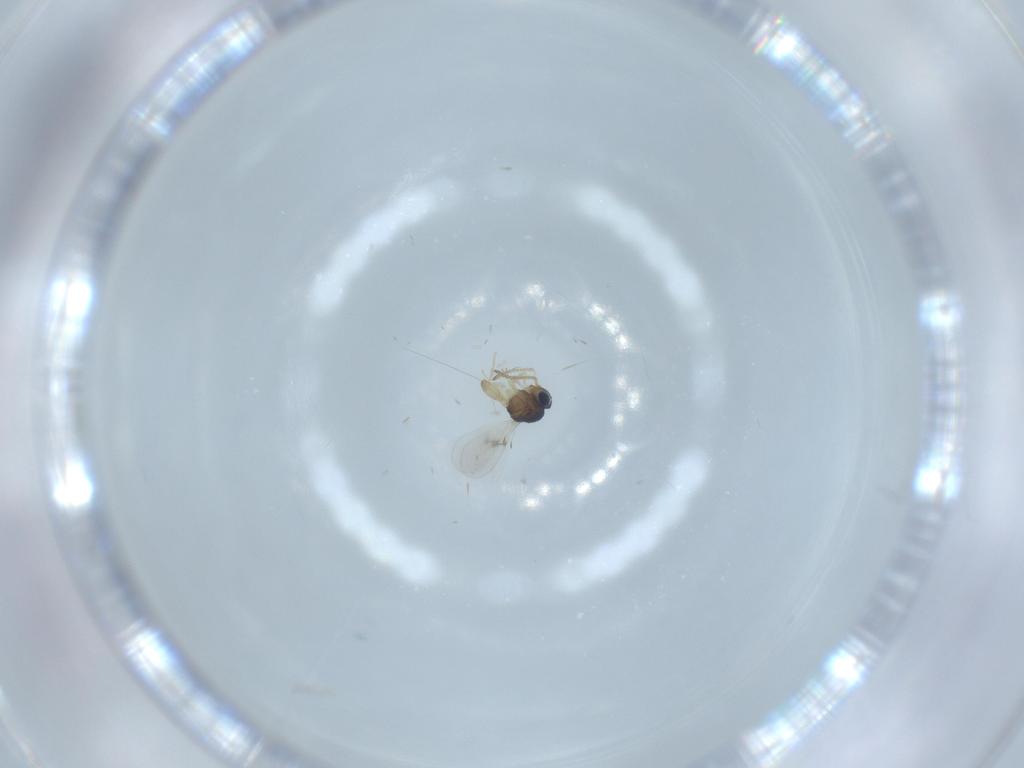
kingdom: Animalia
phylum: Arthropoda
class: Insecta
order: Hymenoptera
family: Scelionidae
